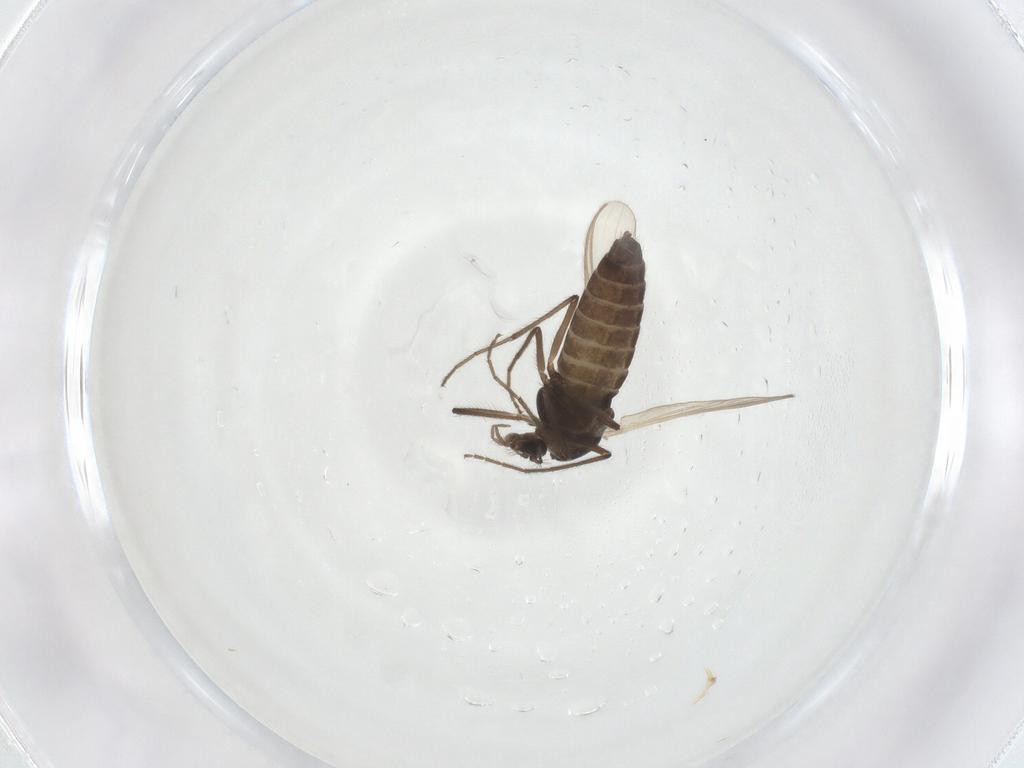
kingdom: Animalia
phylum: Arthropoda
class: Insecta
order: Diptera
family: Chironomidae
